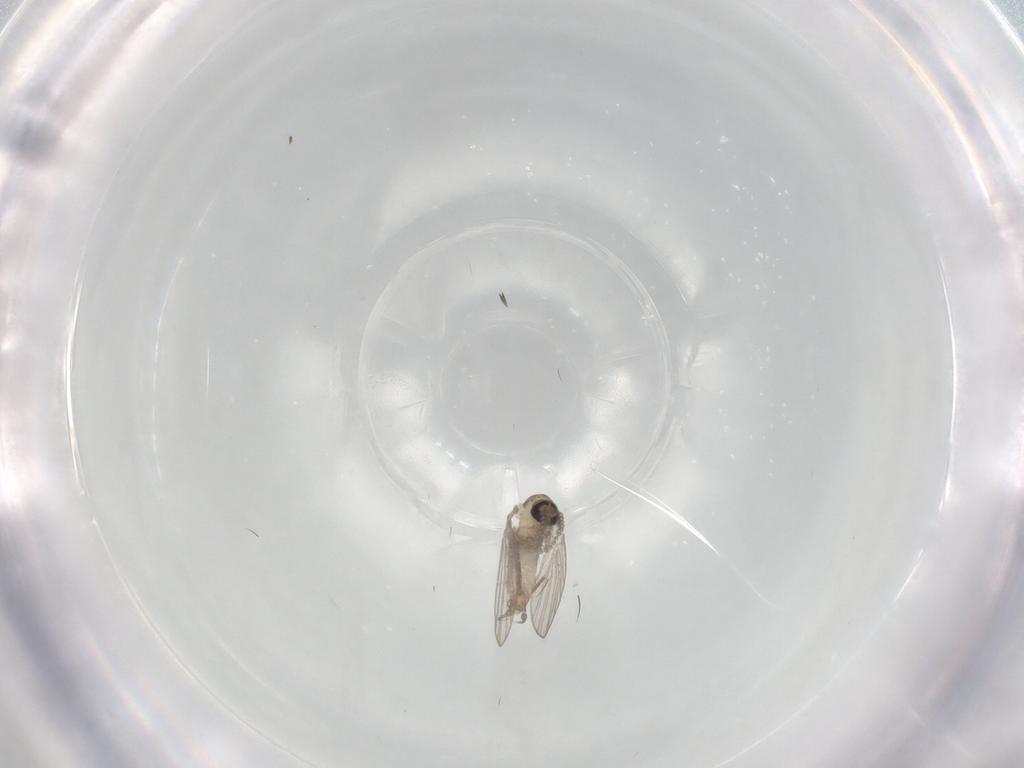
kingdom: Animalia
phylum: Arthropoda
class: Insecta
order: Diptera
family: Psychodidae
